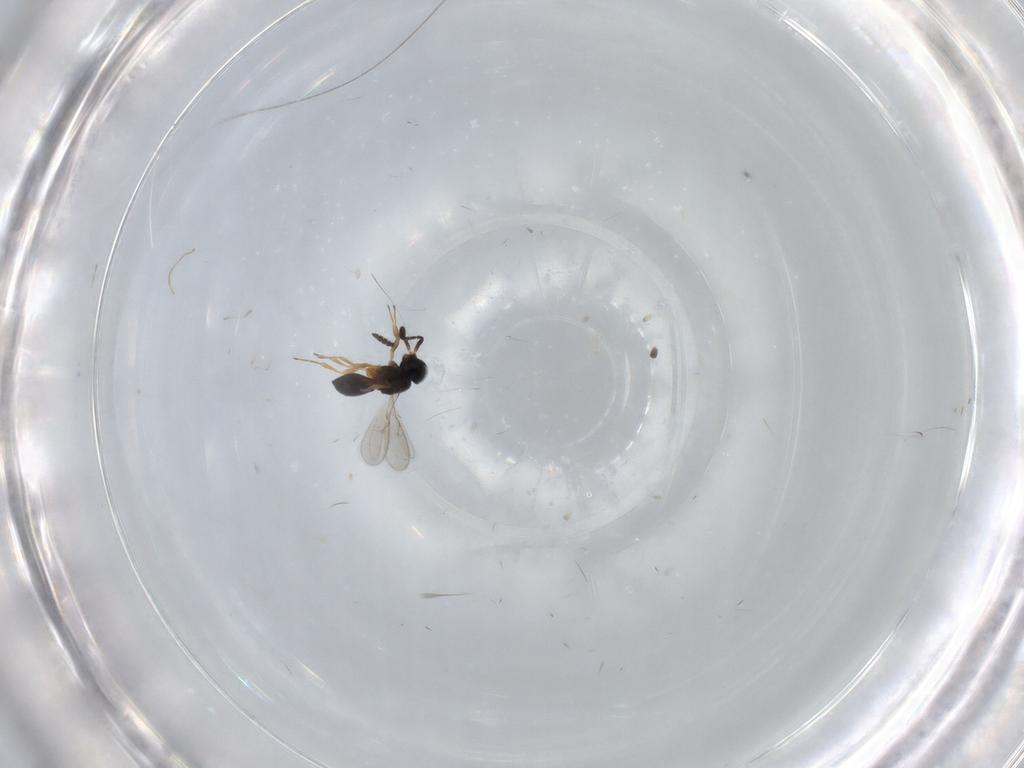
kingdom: Animalia
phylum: Arthropoda
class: Insecta
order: Hymenoptera
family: Scelionidae
